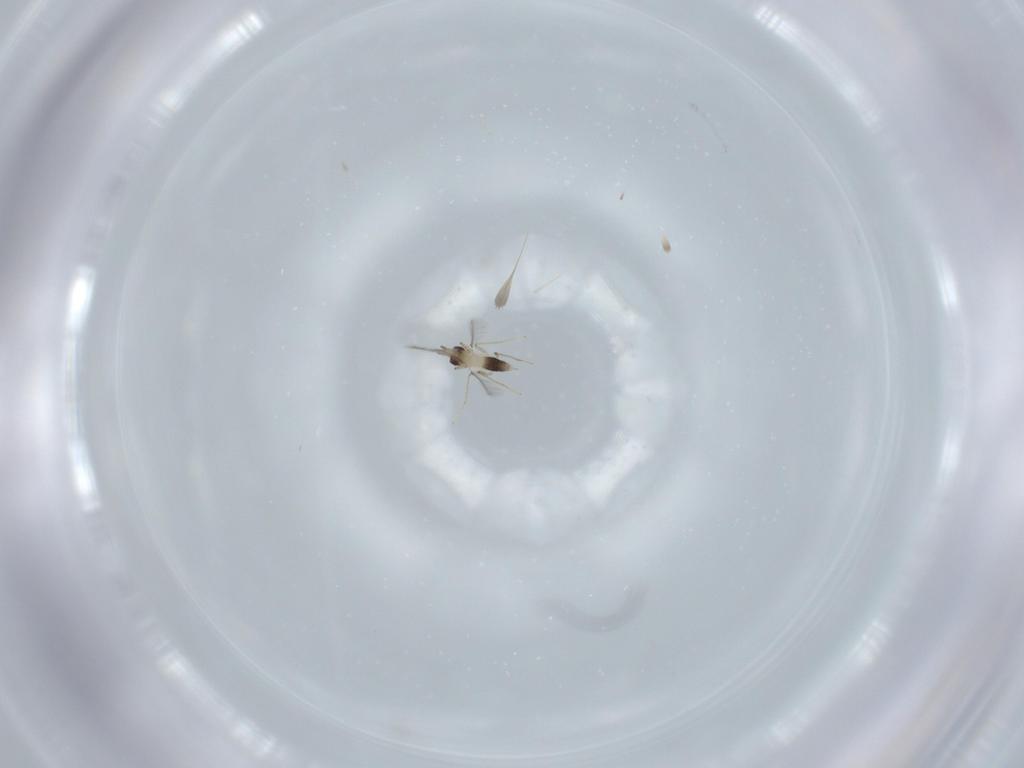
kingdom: Animalia
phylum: Arthropoda
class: Insecta
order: Hymenoptera
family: Mymaridae
